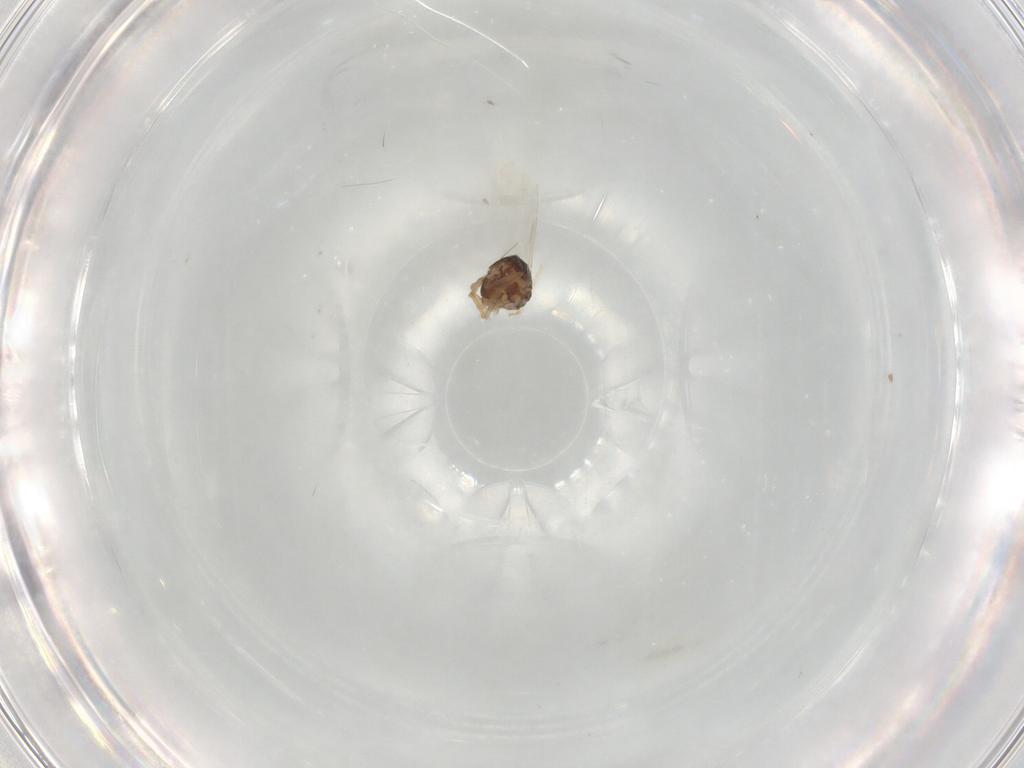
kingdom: Animalia
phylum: Arthropoda
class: Insecta
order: Diptera
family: Ceratopogonidae
